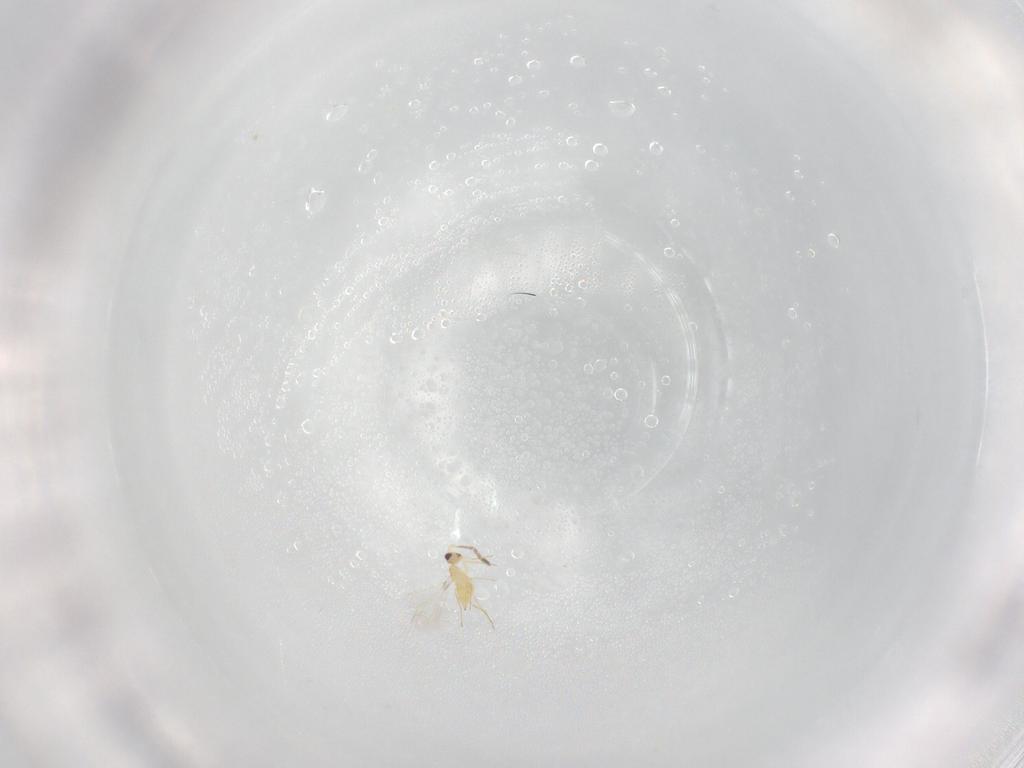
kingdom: Animalia
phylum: Arthropoda
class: Insecta
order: Hymenoptera
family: Mymaridae
